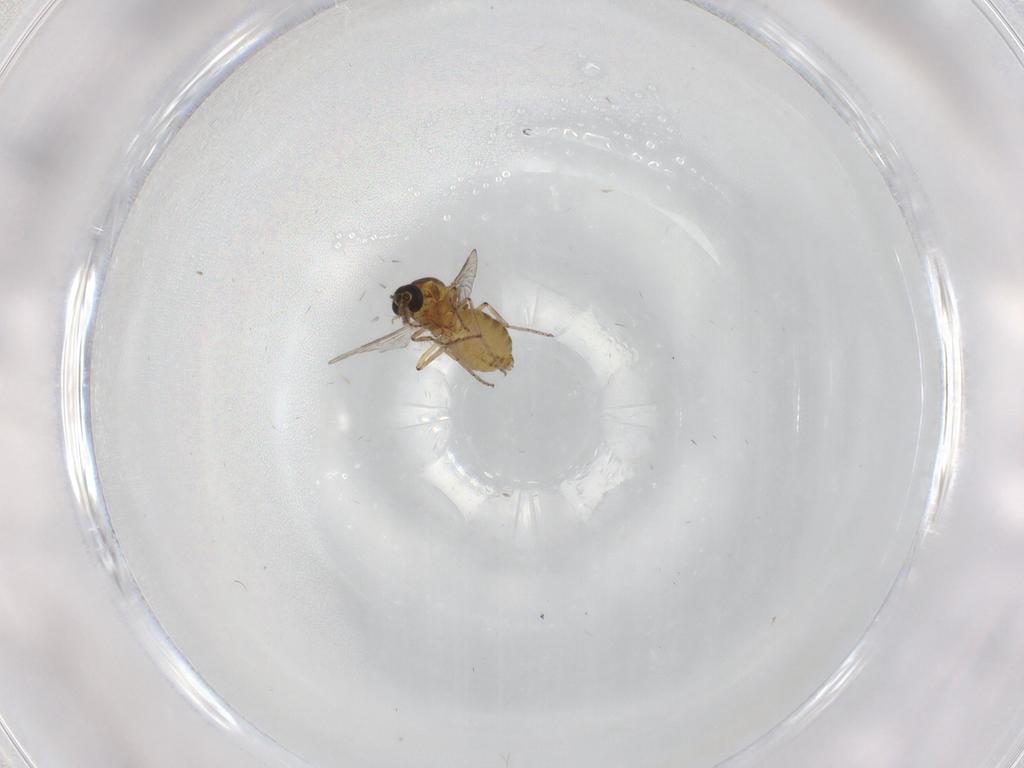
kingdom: Animalia
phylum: Arthropoda
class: Insecta
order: Diptera
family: Ceratopogonidae
